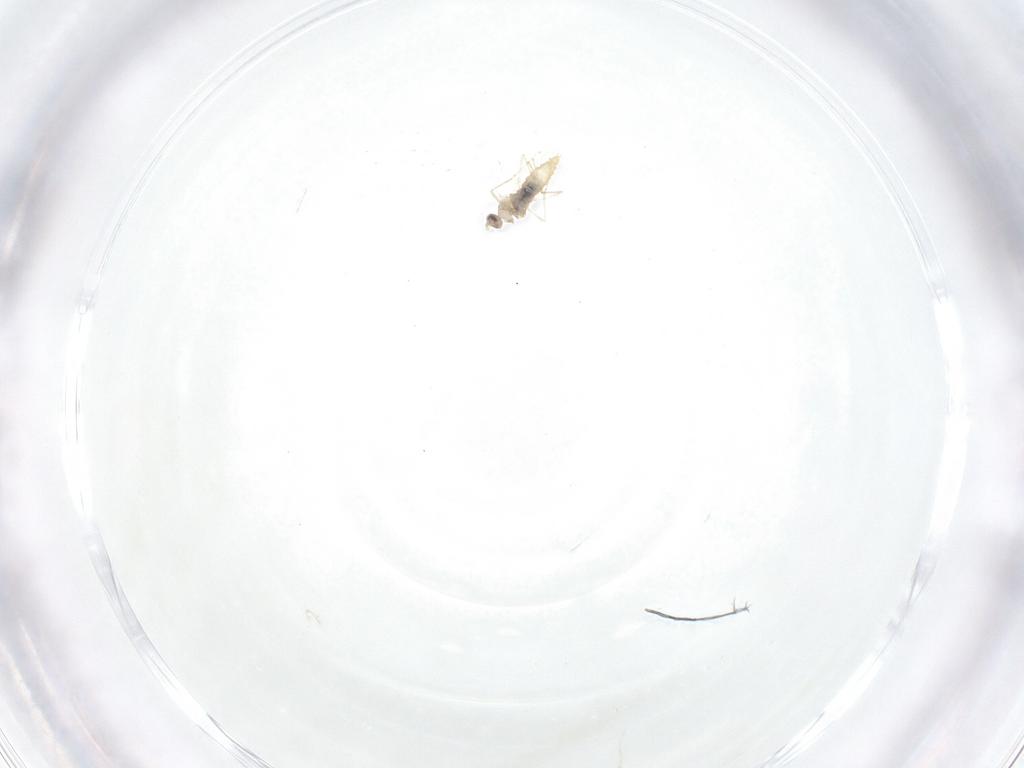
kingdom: Animalia
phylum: Arthropoda
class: Insecta
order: Diptera
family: Cecidomyiidae
